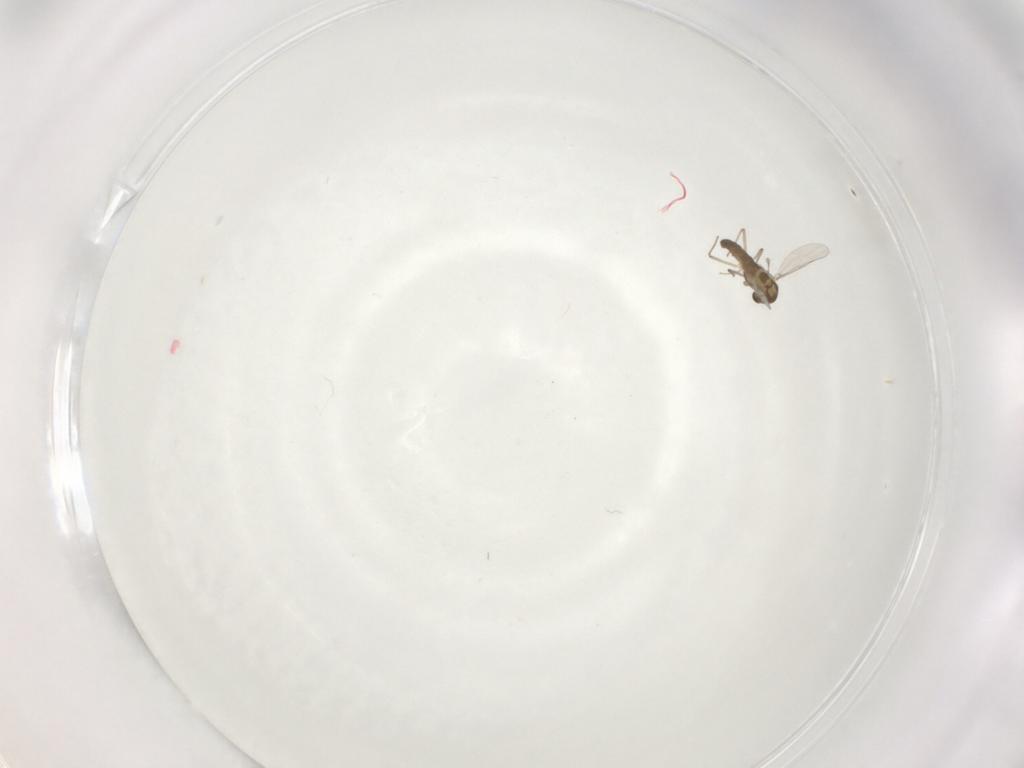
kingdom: Animalia
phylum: Arthropoda
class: Insecta
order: Diptera
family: Chironomidae
